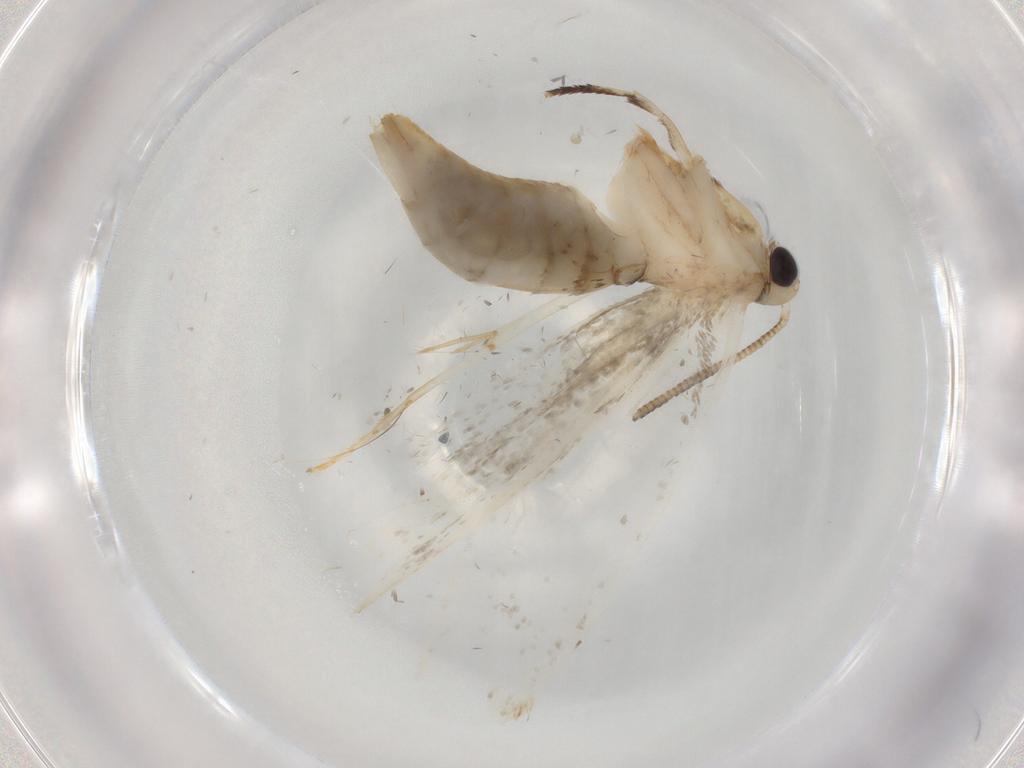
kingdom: Animalia
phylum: Arthropoda
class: Insecta
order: Lepidoptera
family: Tineidae
